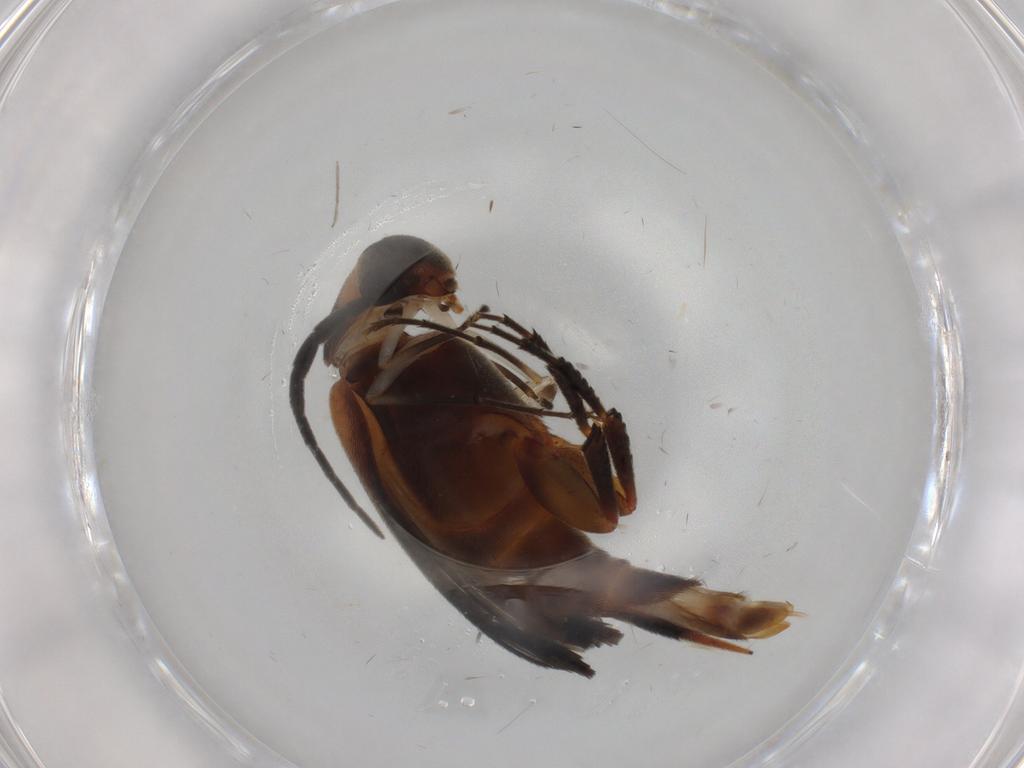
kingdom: Animalia
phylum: Arthropoda
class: Insecta
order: Coleoptera
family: Mordellidae
